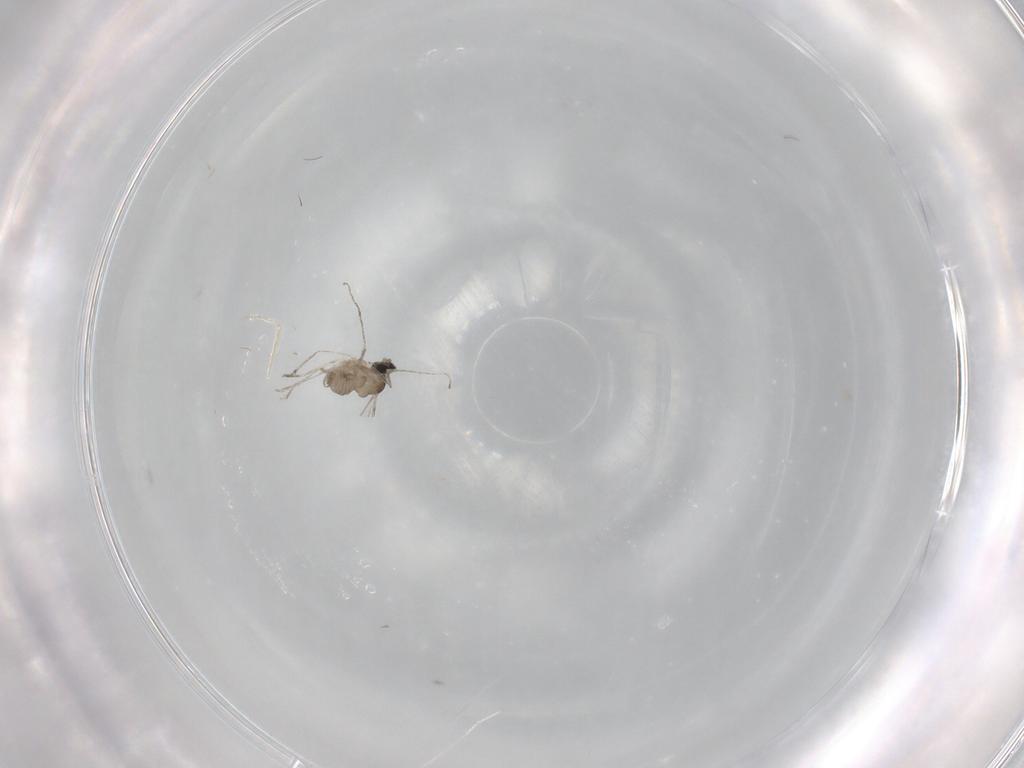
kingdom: Animalia
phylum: Arthropoda
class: Insecta
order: Diptera
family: Cecidomyiidae
